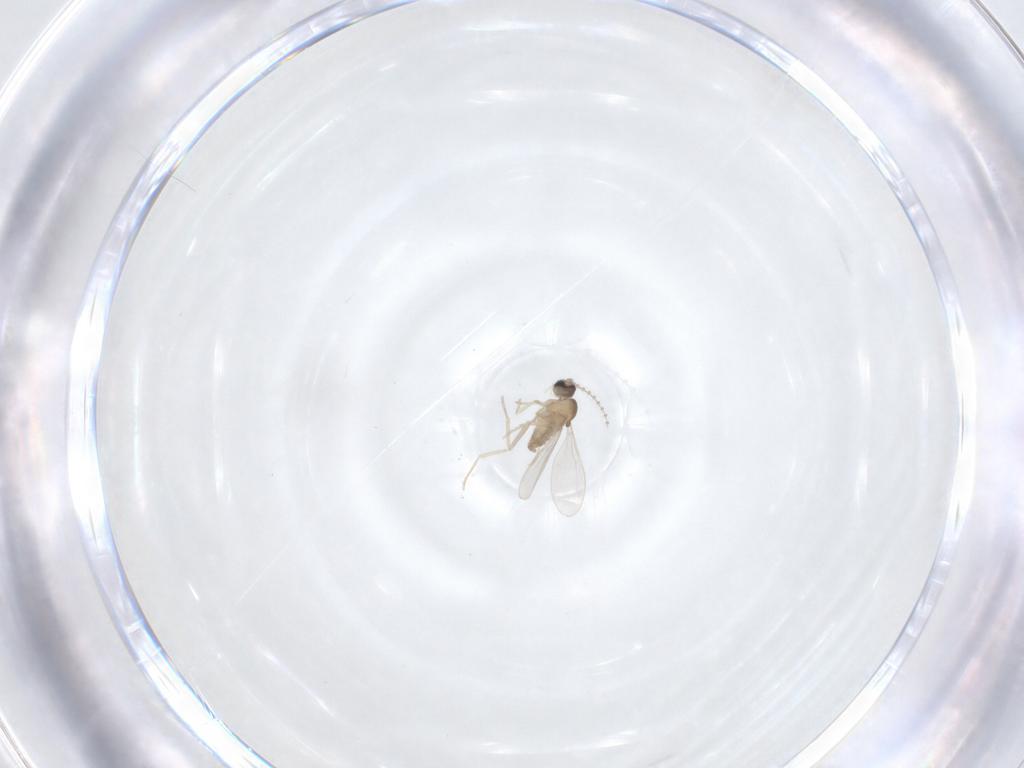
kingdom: Animalia
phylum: Arthropoda
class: Insecta
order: Diptera
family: Cecidomyiidae
